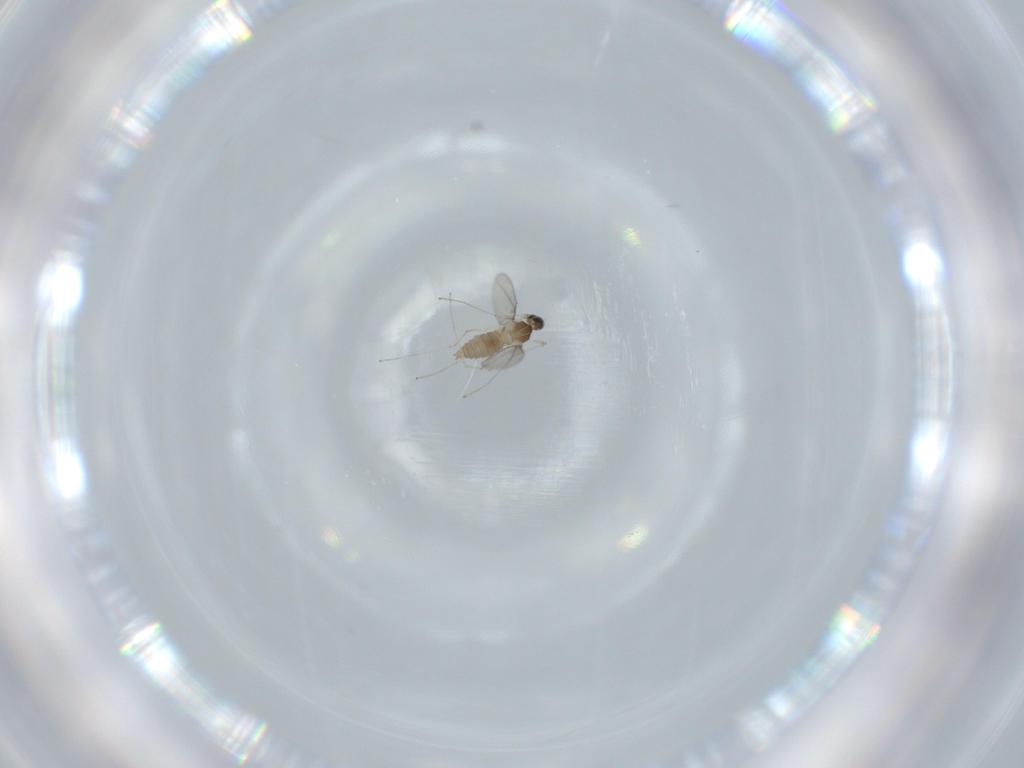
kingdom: Animalia
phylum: Arthropoda
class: Insecta
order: Diptera
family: Cecidomyiidae
